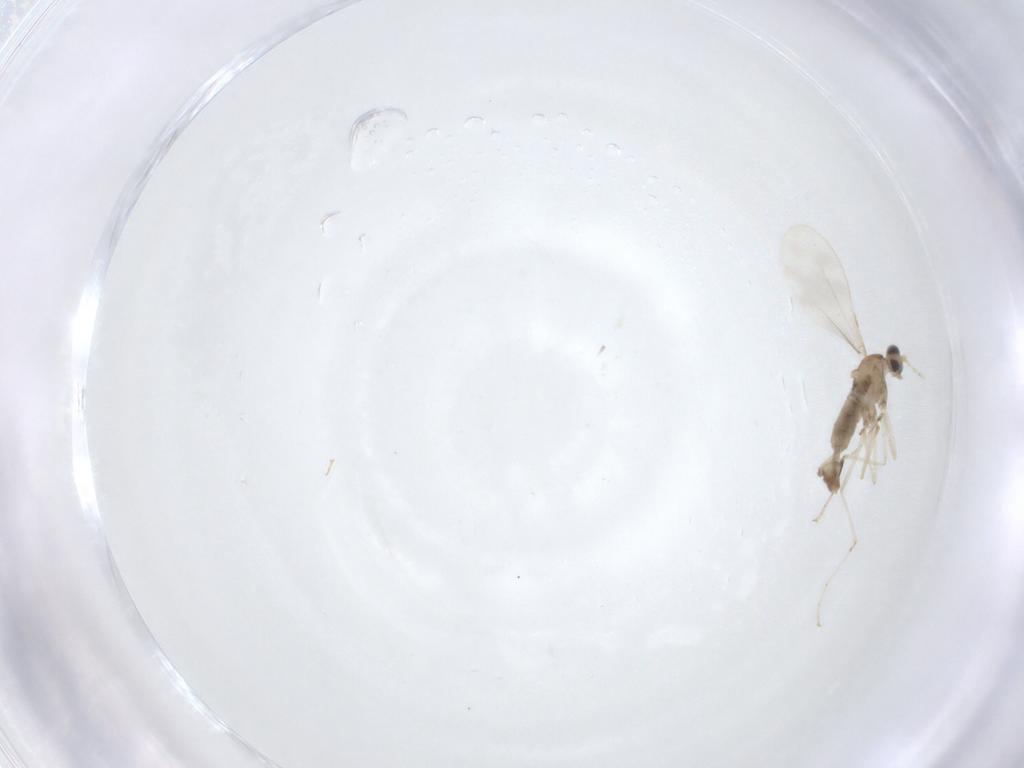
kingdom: Animalia
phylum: Arthropoda
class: Insecta
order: Diptera
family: Cecidomyiidae
